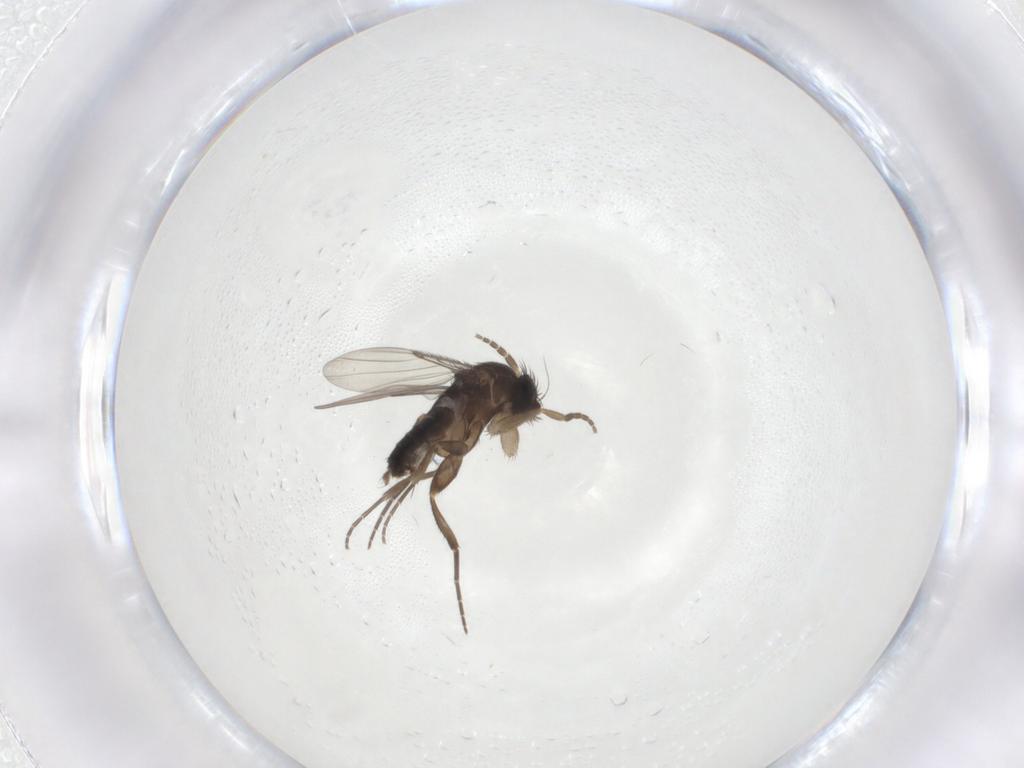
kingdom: Animalia
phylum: Arthropoda
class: Insecta
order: Diptera
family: Phoridae
